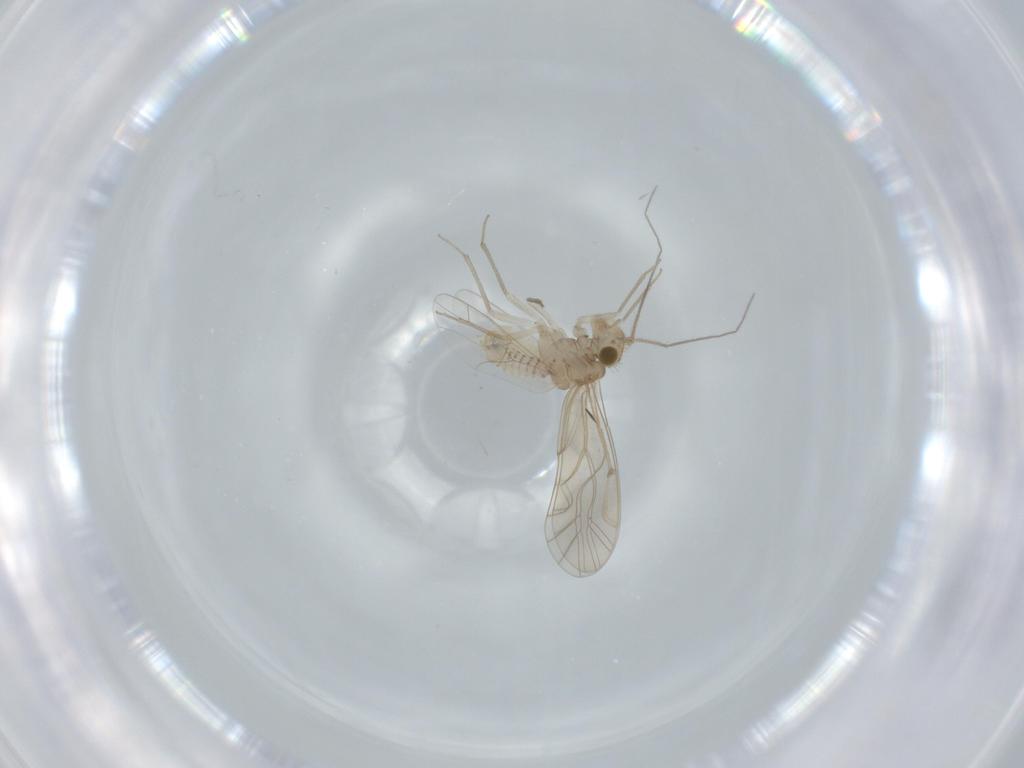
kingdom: Animalia
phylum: Arthropoda
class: Insecta
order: Psocodea
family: Lachesillidae
